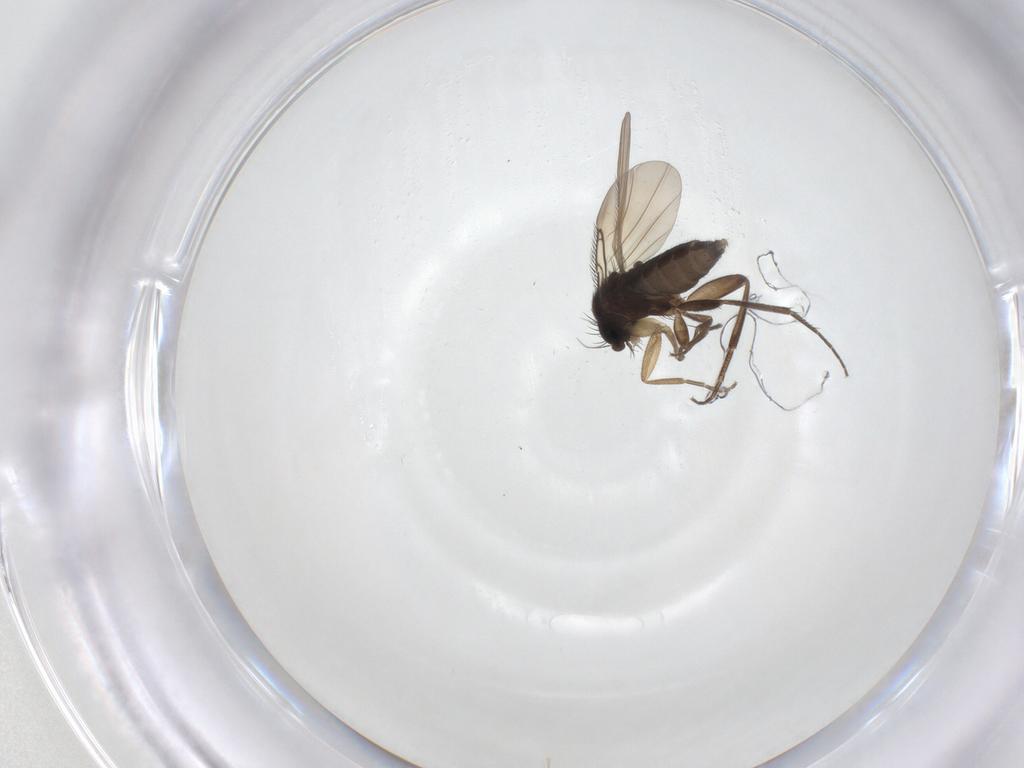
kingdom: Animalia
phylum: Arthropoda
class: Insecta
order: Diptera
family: Phoridae
